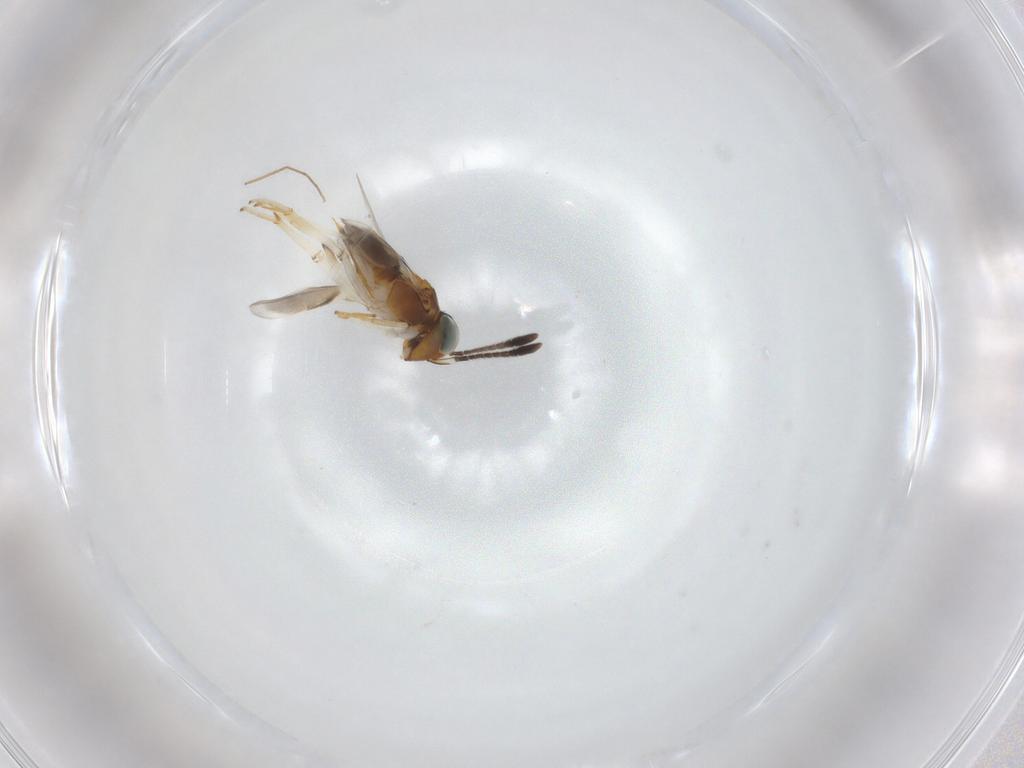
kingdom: Animalia
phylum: Arthropoda
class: Insecta
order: Hymenoptera
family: Encyrtidae
